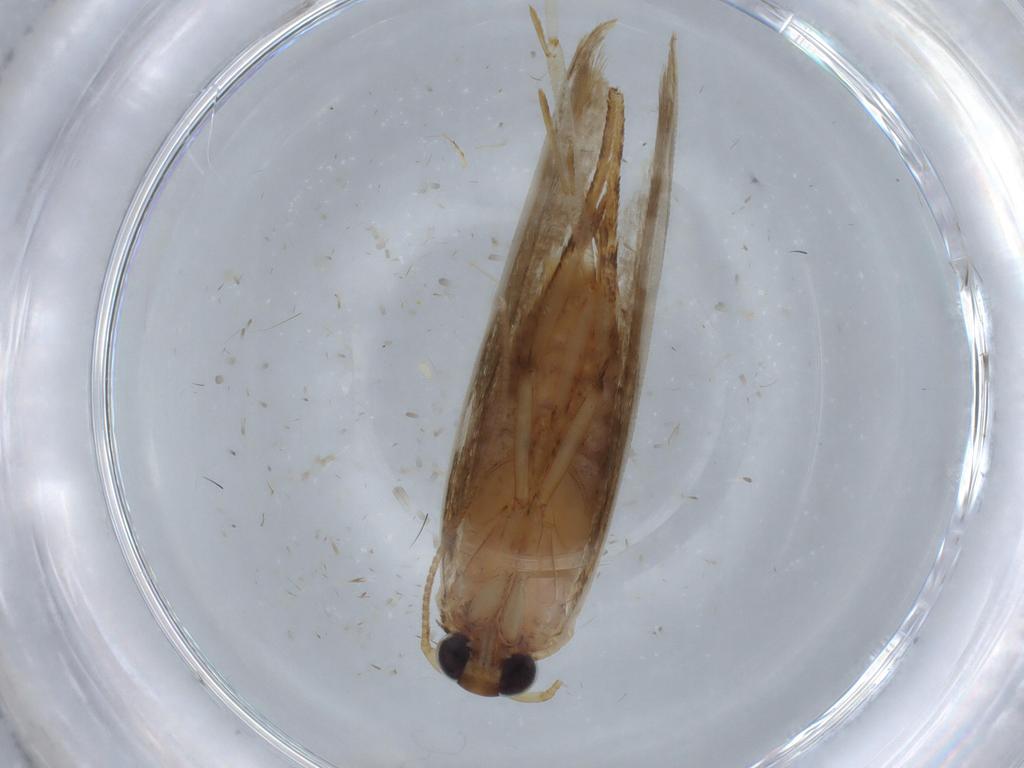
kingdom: Animalia
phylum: Arthropoda
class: Insecta
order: Lepidoptera
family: Blastobasidae
